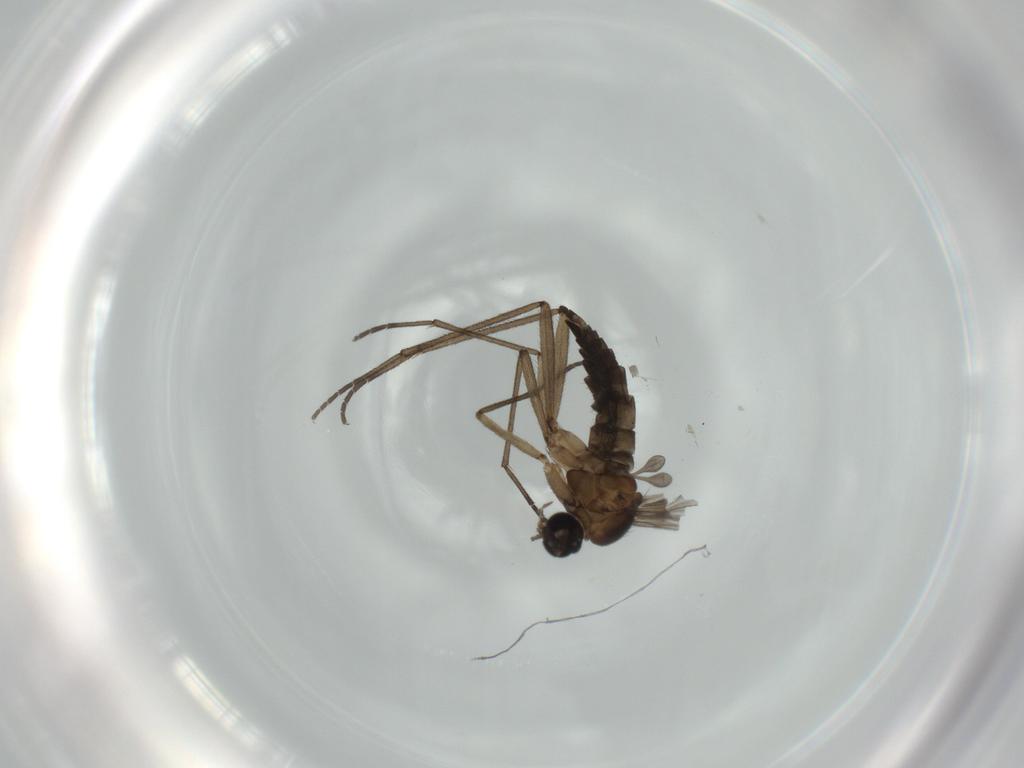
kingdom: Animalia
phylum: Arthropoda
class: Insecta
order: Diptera
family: Sciaridae
